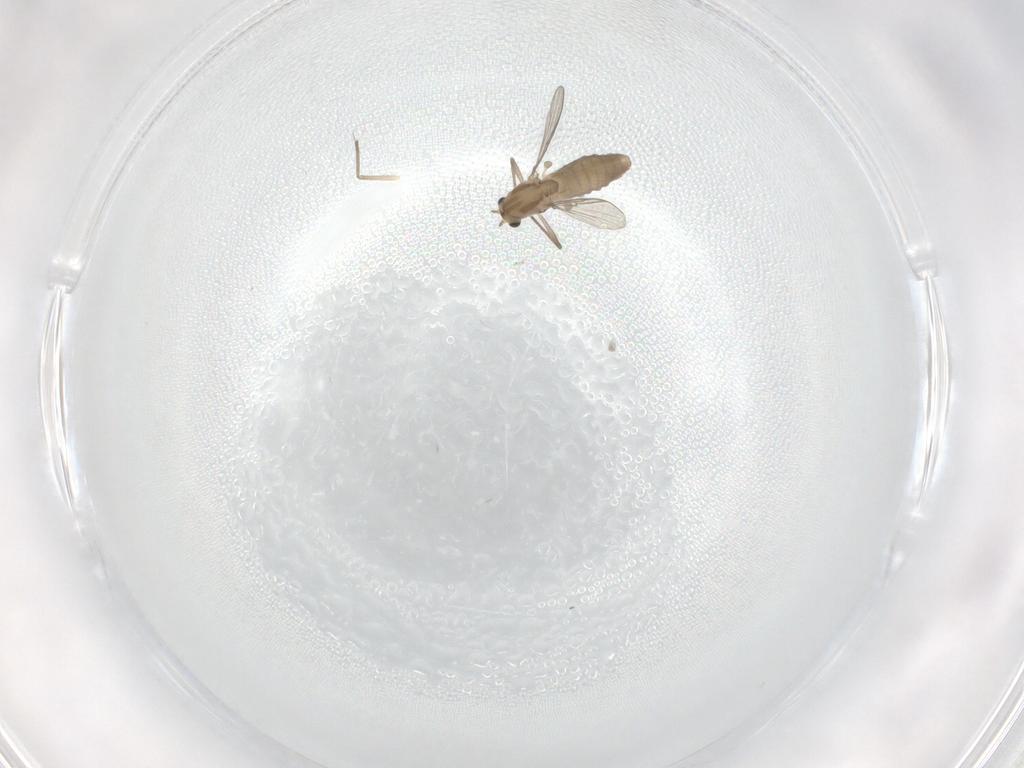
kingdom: Animalia
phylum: Arthropoda
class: Insecta
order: Diptera
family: Chironomidae
